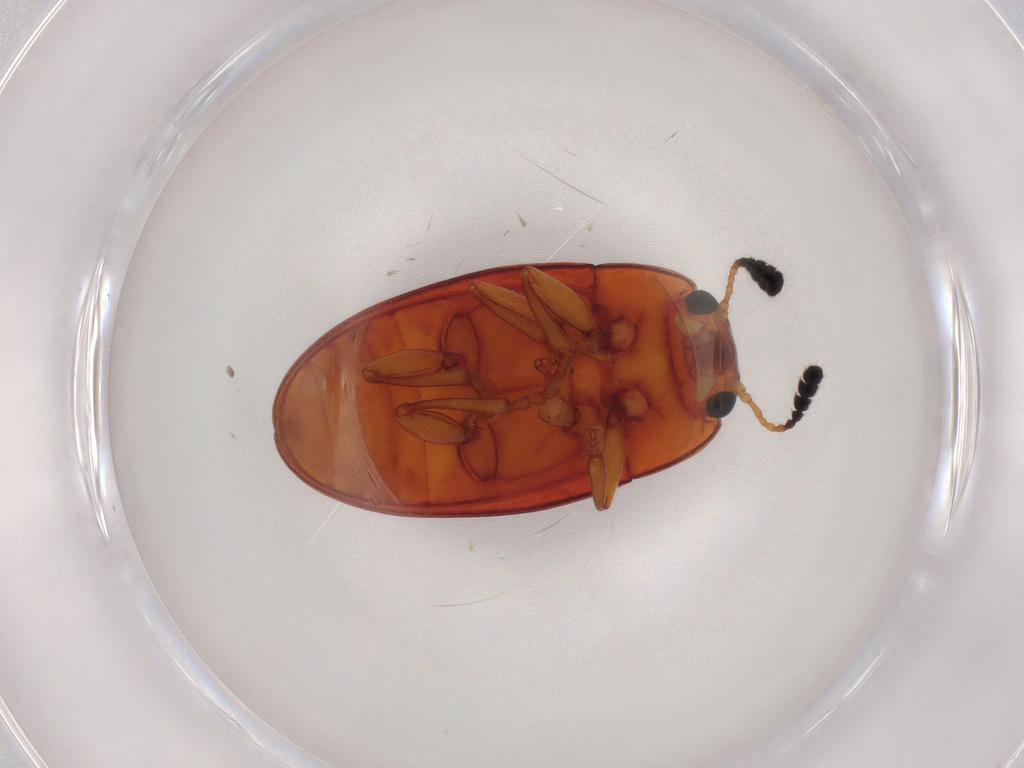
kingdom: Animalia
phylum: Arthropoda
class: Insecta
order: Coleoptera
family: Erotylidae
